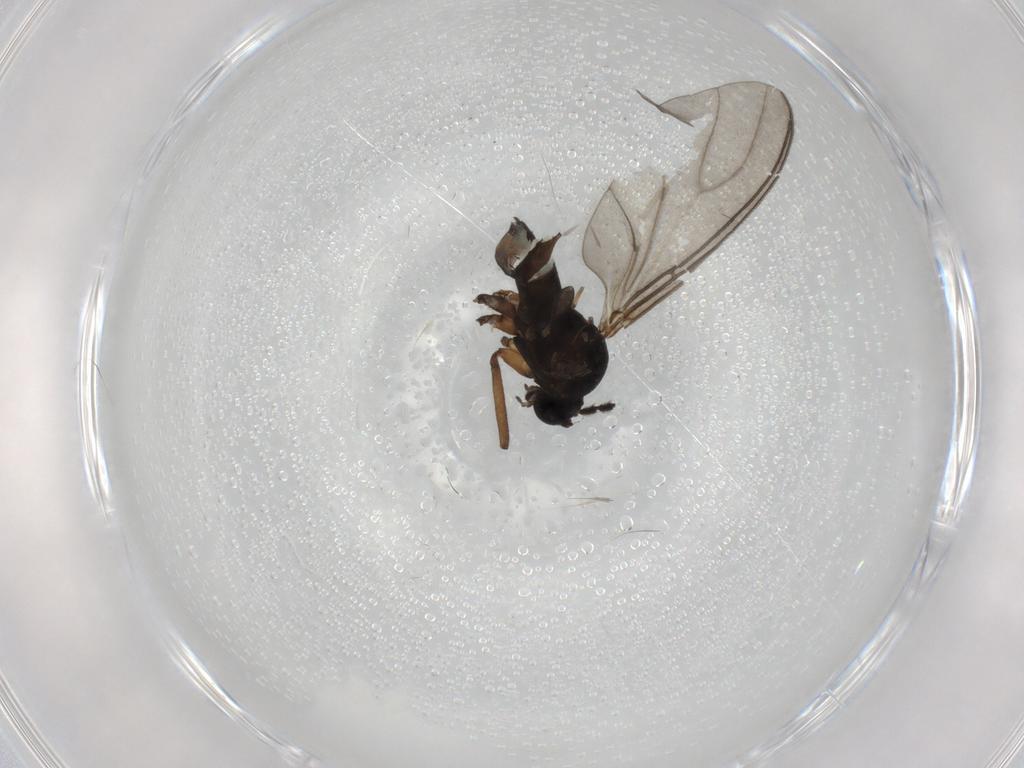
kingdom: Animalia
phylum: Arthropoda
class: Insecta
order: Diptera
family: Sciaridae
